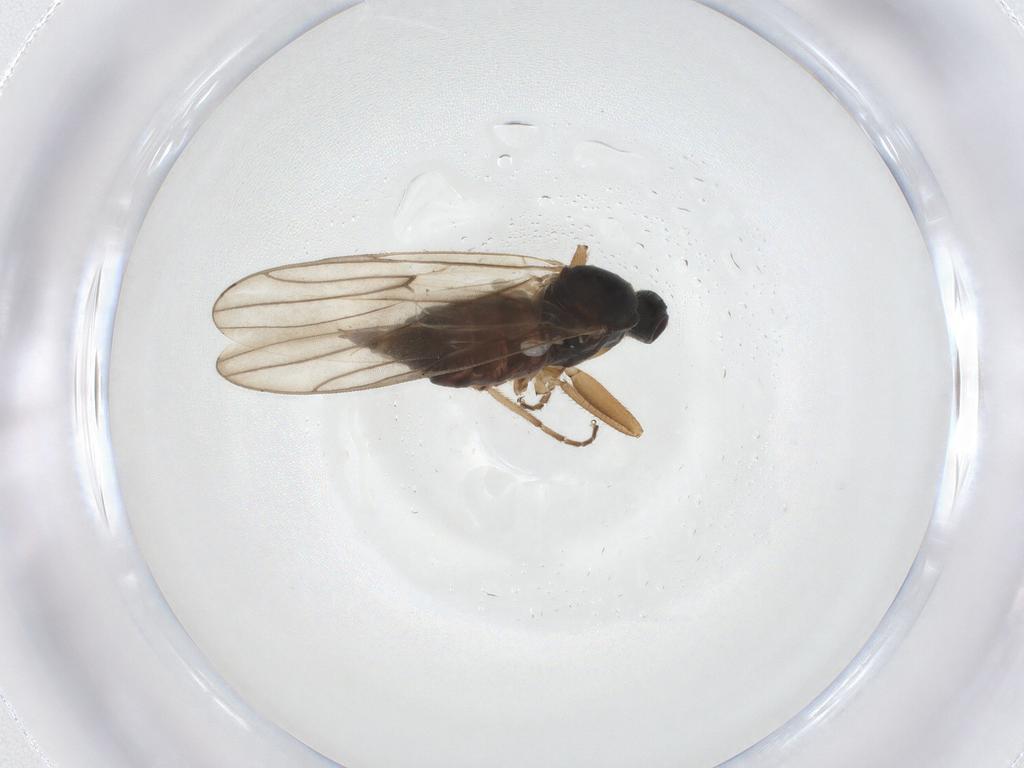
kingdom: Animalia
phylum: Arthropoda
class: Insecta
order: Diptera
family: Hybotidae
